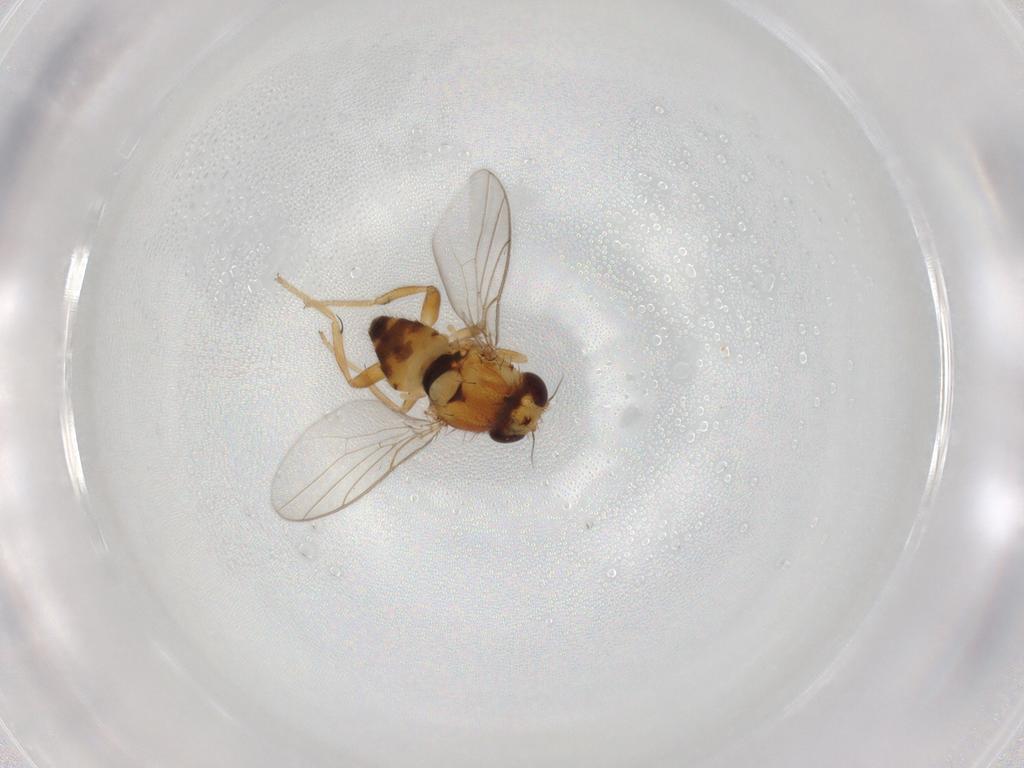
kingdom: Animalia
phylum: Arthropoda
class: Insecta
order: Diptera
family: Chloropidae
